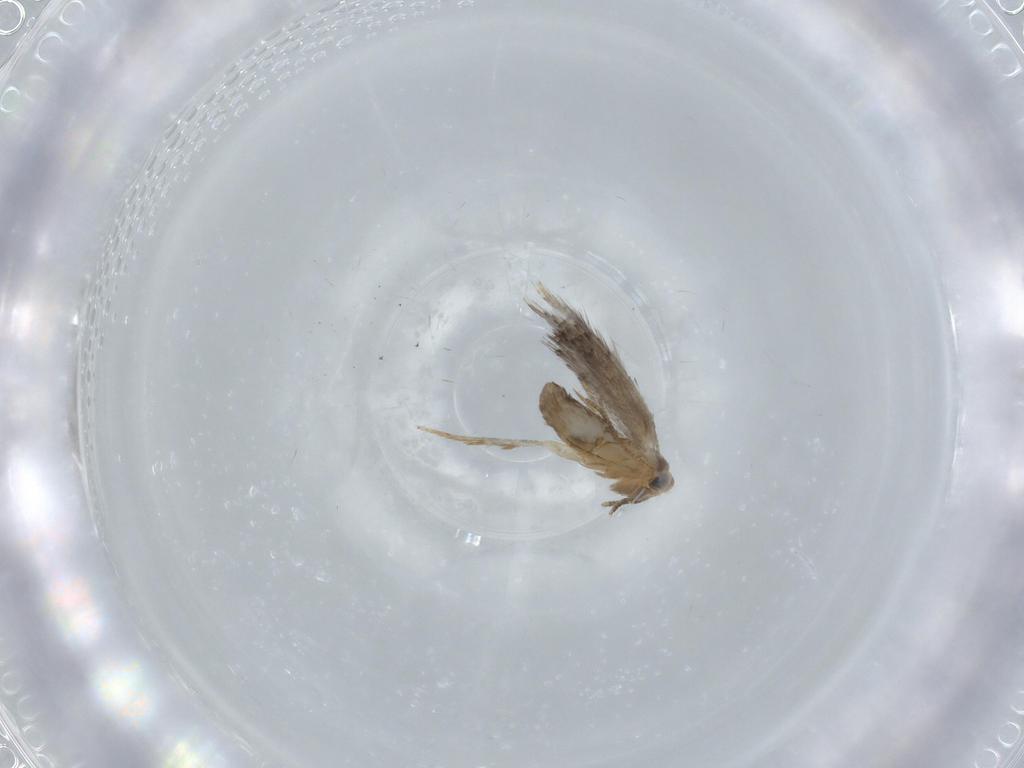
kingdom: Animalia
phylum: Arthropoda
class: Insecta
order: Lepidoptera
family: Nepticulidae
